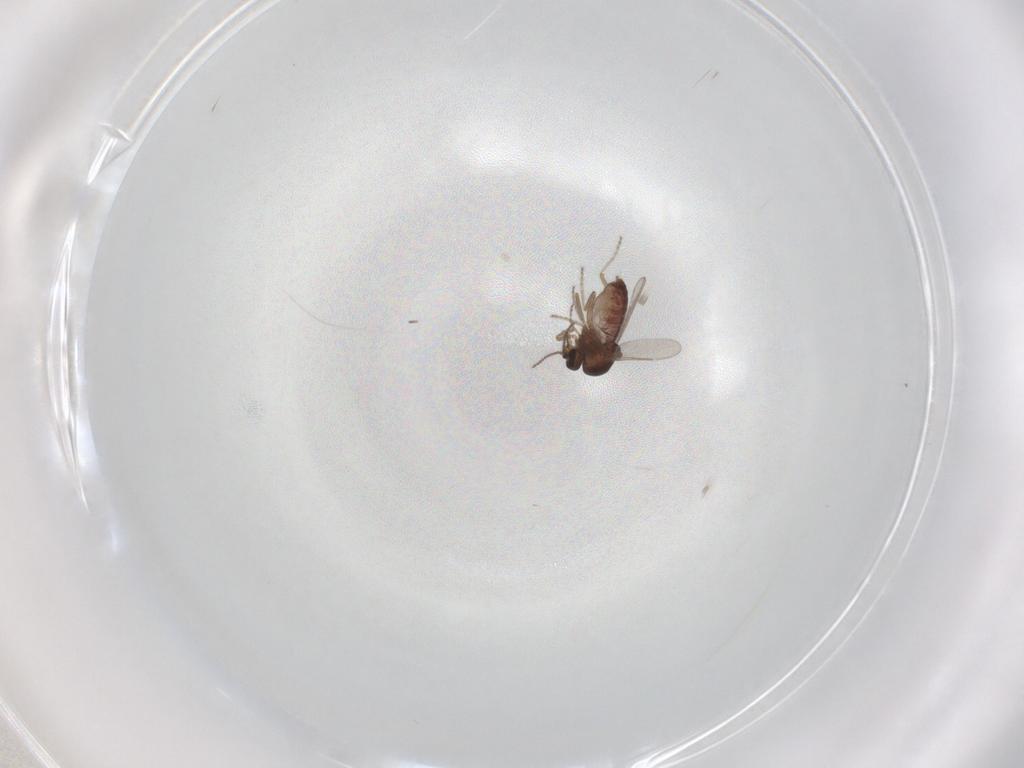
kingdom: Animalia
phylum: Arthropoda
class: Insecta
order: Diptera
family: Ceratopogonidae
